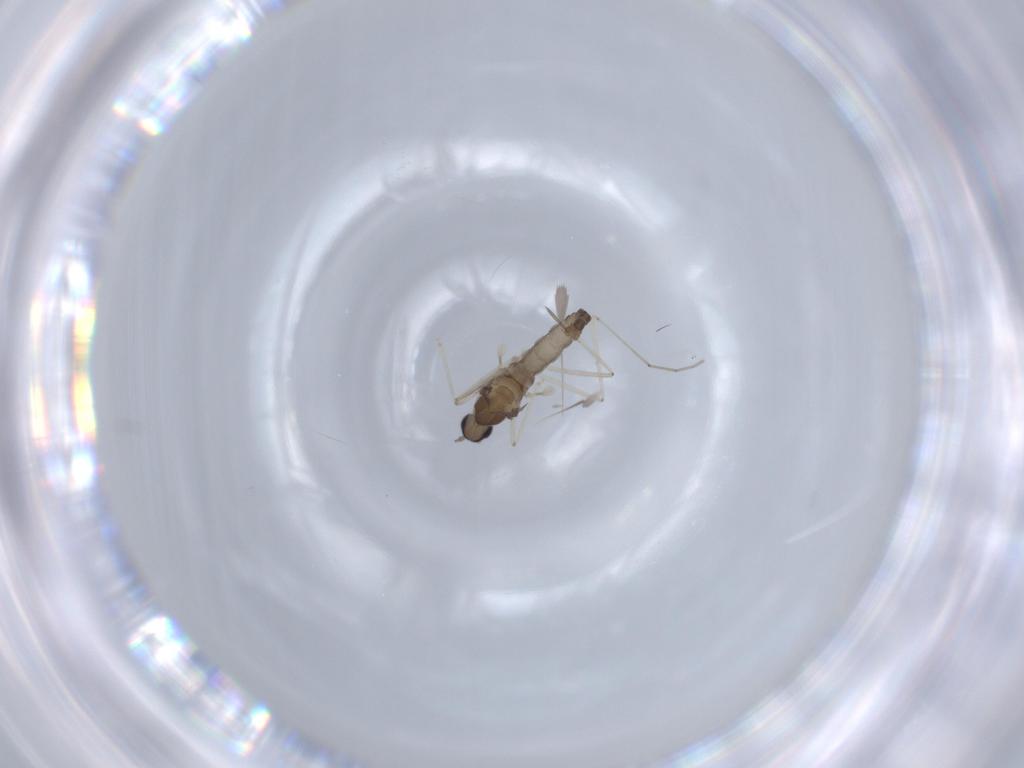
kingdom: Animalia
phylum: Arthropoda
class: Insecta
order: Diptera
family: Cecidomyiidae
